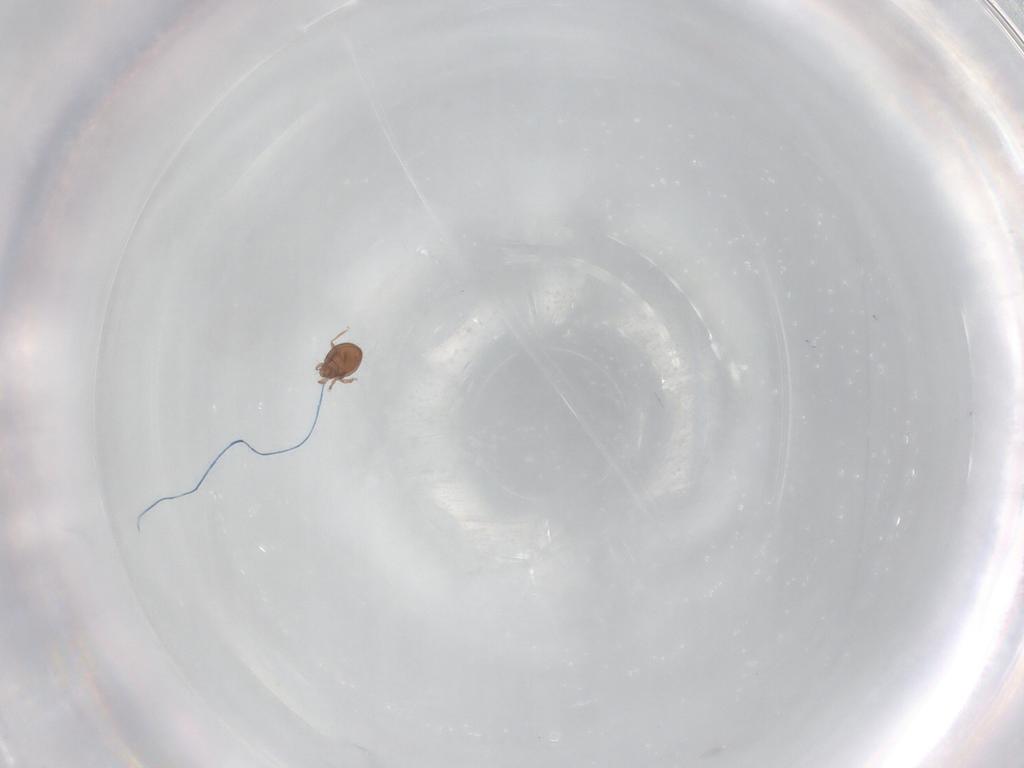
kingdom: Animalia
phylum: Arthropoda
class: Arachnida
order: Sarcoptiformes
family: Oribatulidae
